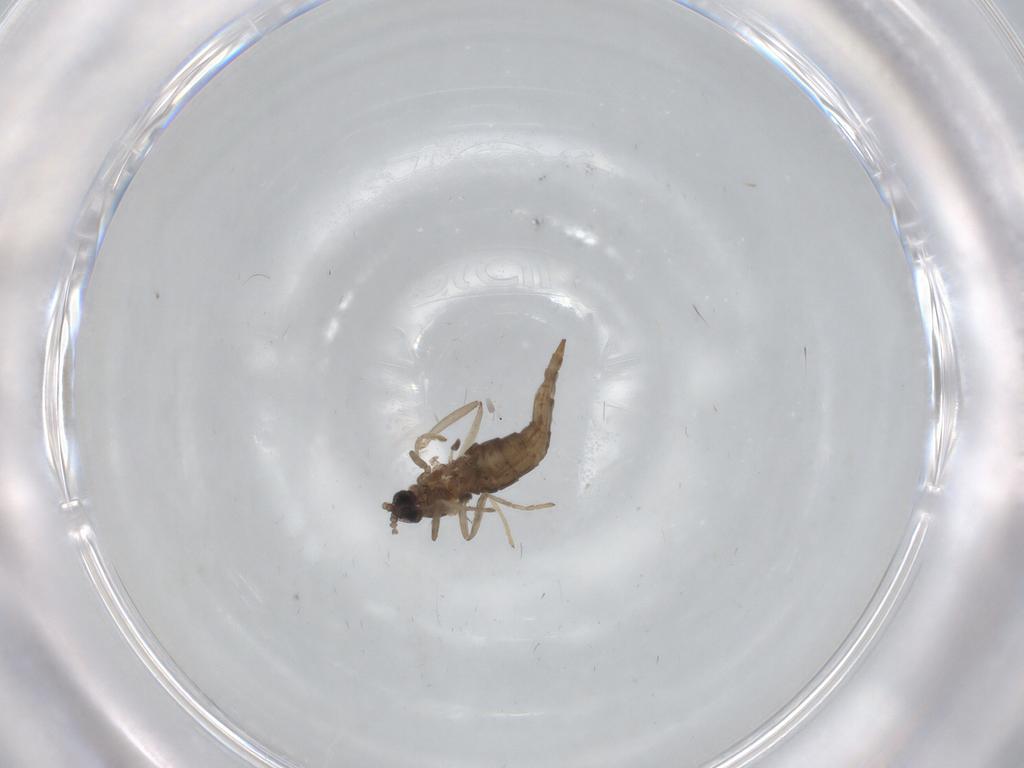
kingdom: Animalia
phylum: Arthropoda
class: Insecta
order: Diptera
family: Cecidomyiidae
